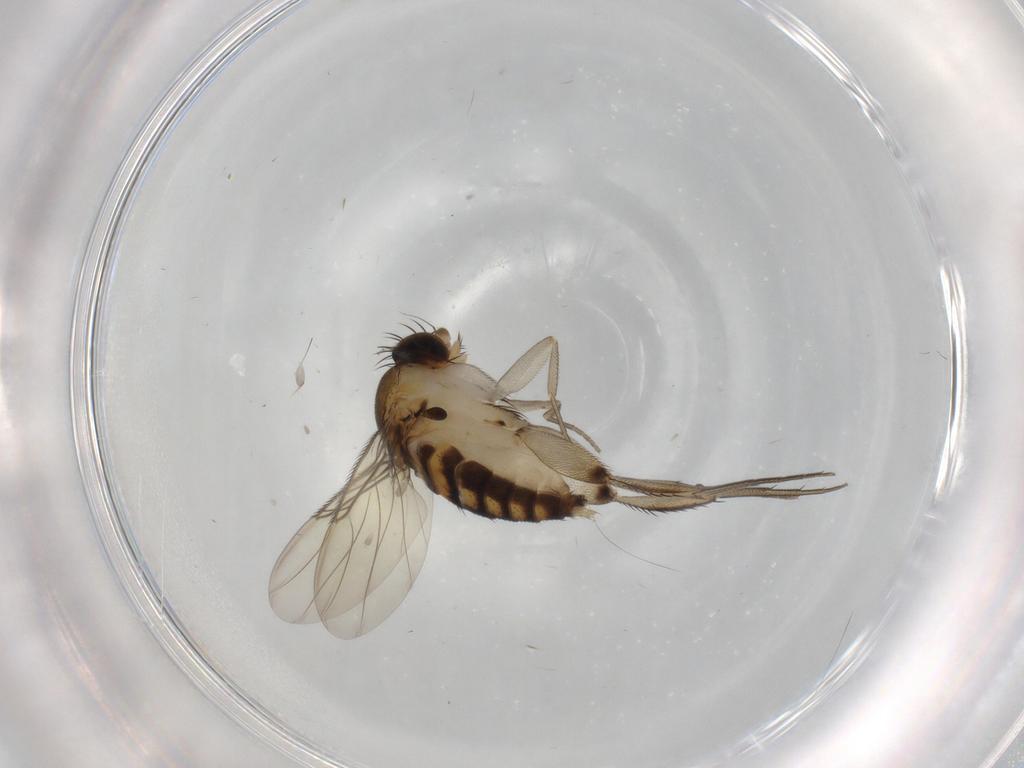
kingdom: Animalia
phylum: Arthropoda
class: Insecta
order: Diptera
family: Phoridae
